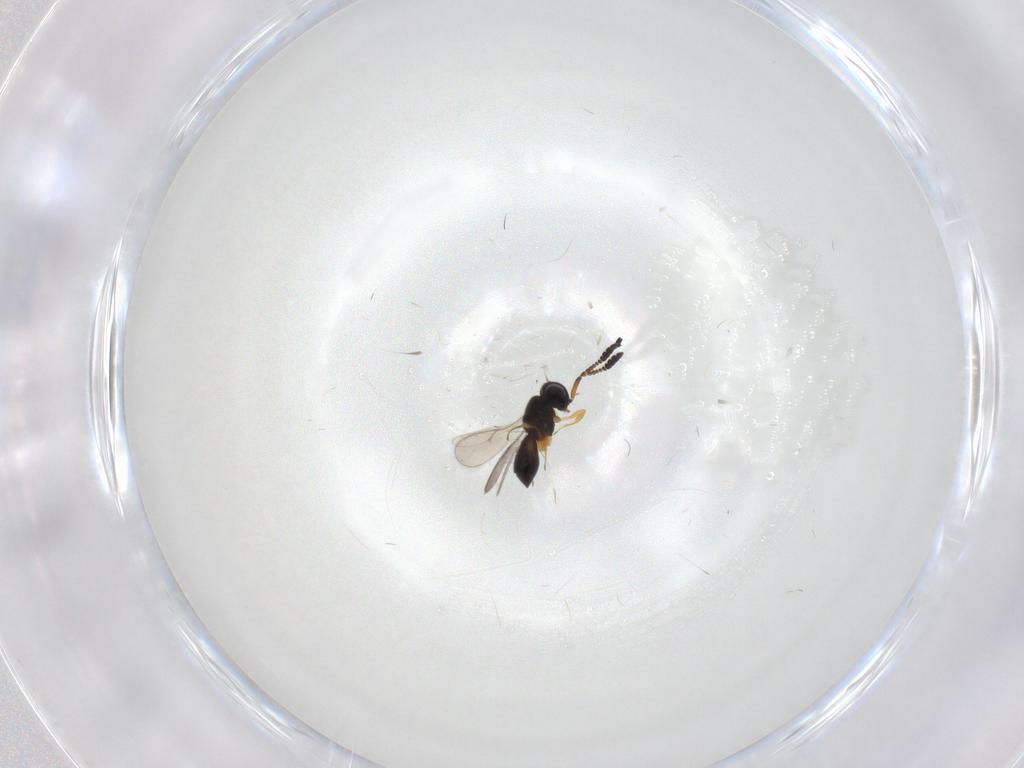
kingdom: Animalia
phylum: Arthropoda
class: Insecta
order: Hymenoptera
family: Scelionidae
